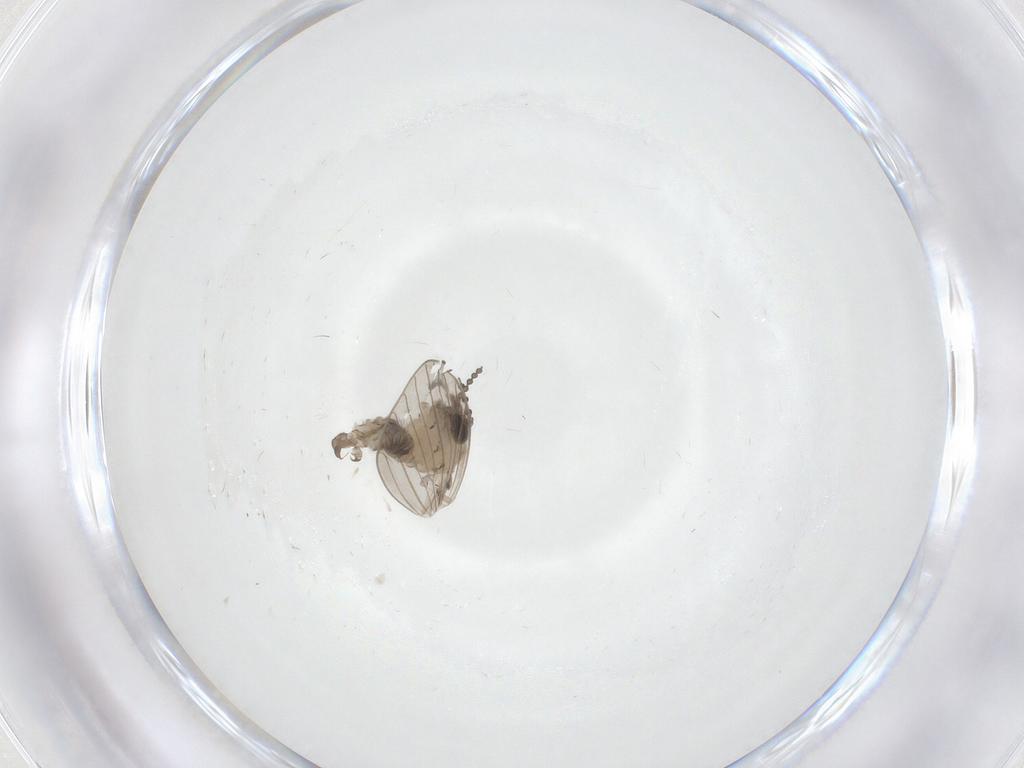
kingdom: Animalia
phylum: Arthropoda
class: Insecta
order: Diptera
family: Psychodidae
